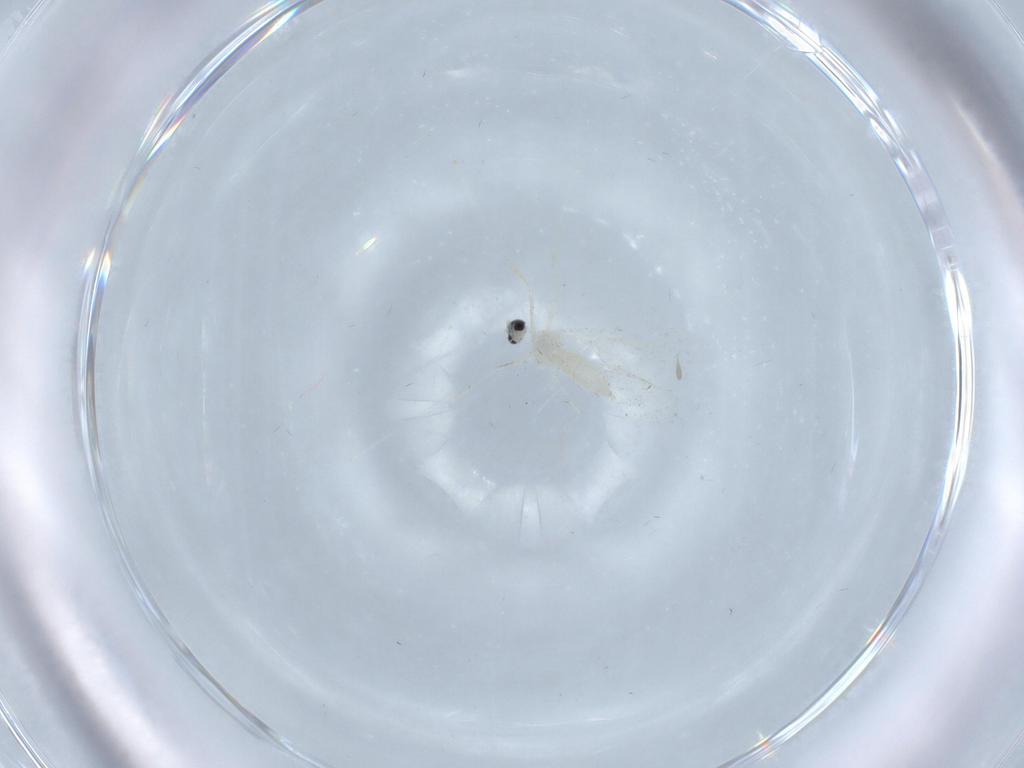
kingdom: Animalia
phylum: Arthropoda
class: Insecta
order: Diptera
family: Cecidomyiidae
